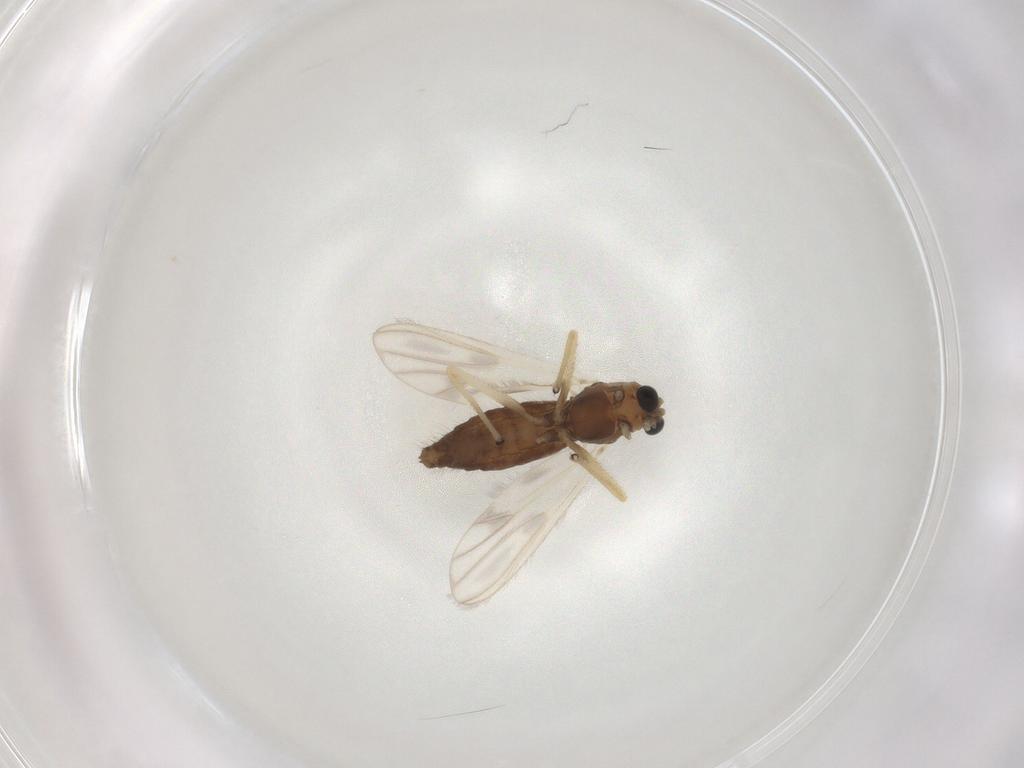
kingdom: Animalia
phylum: Arthropoda
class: Insecta
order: Diptera
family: Chironomidae
